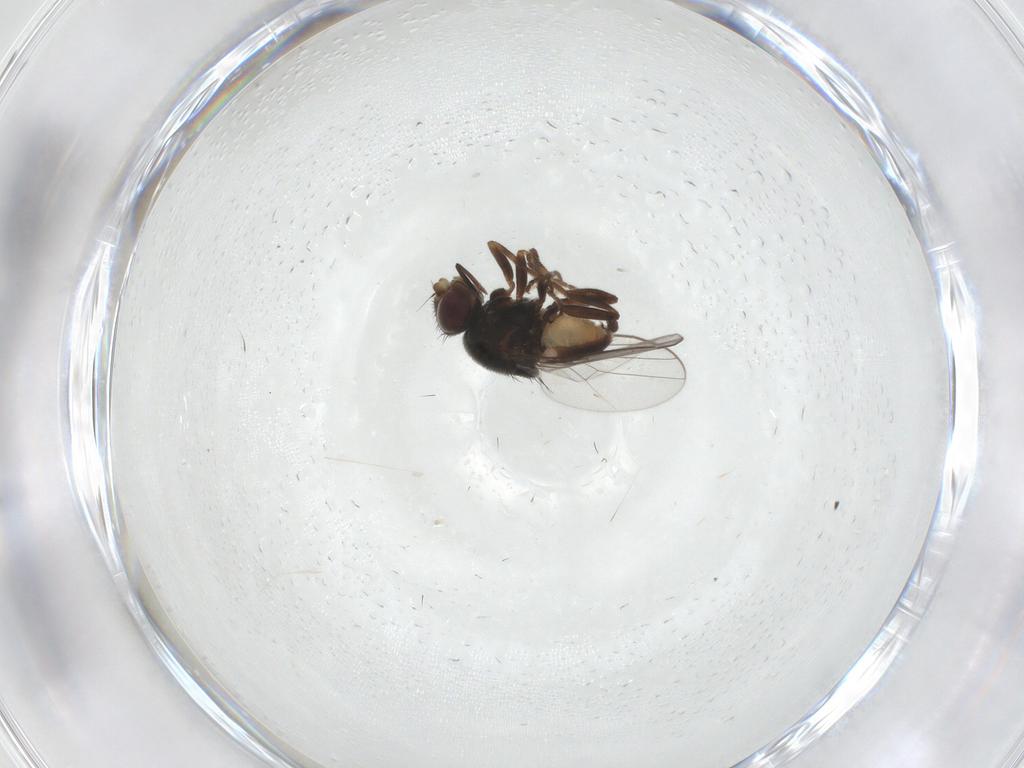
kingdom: Animalia
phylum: Arthropoda
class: Insecta
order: Diptera
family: Chloropidae
